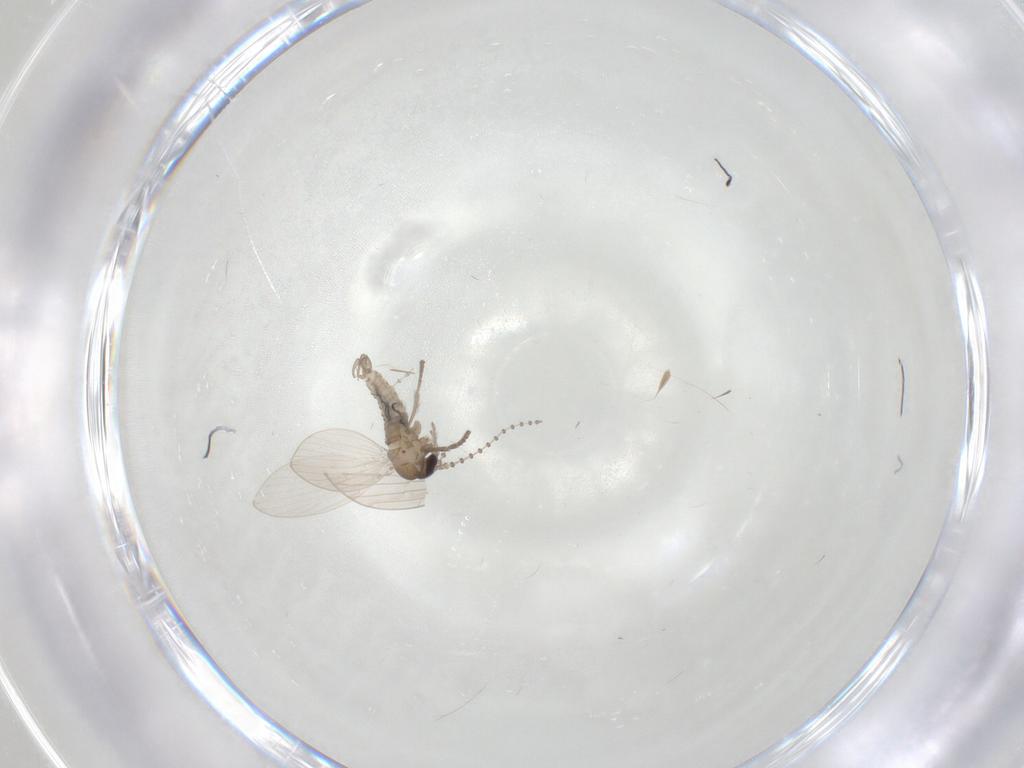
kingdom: Animalia
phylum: Arthropoda
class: Insecta
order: Diptera
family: Psychodidae
